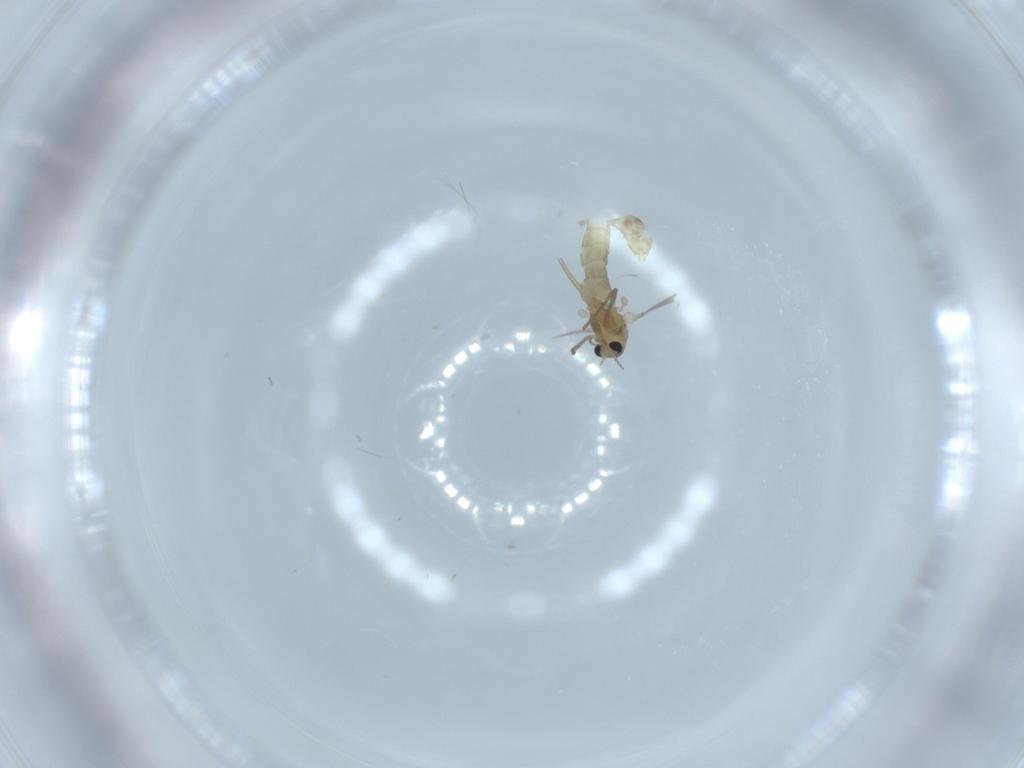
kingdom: Animalia
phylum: Arthropoda
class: Insecta
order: Diptera
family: Chironomidae
